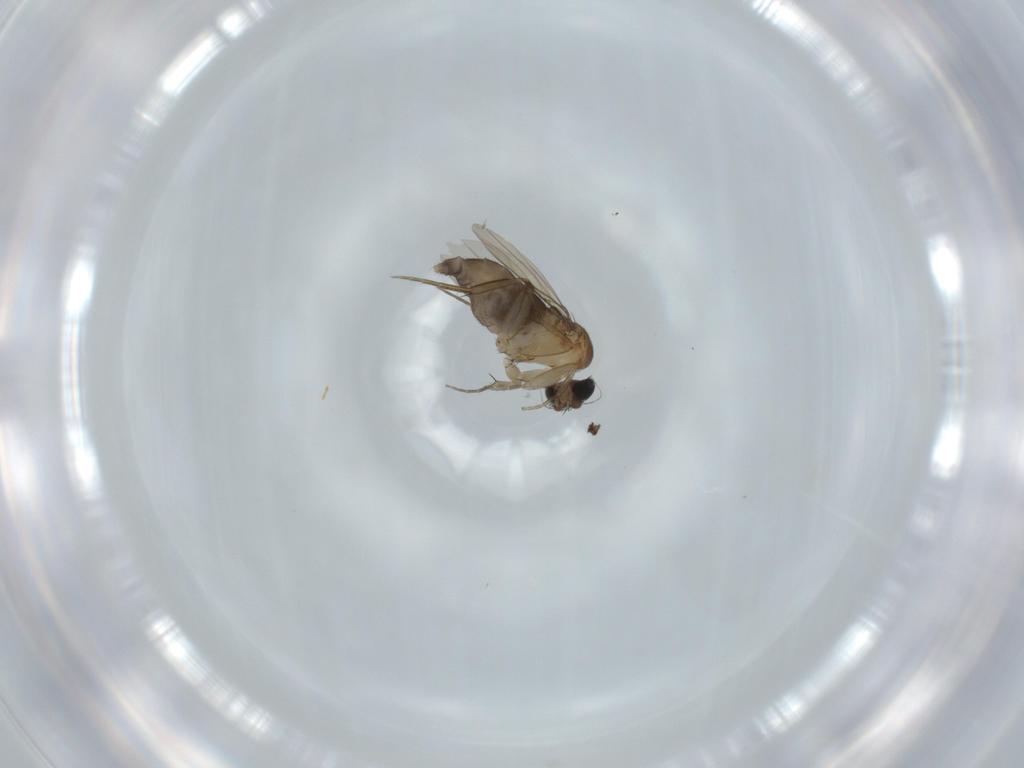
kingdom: Animalia
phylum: Arthropoda
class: Insecta
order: Diptera
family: Phoridae
